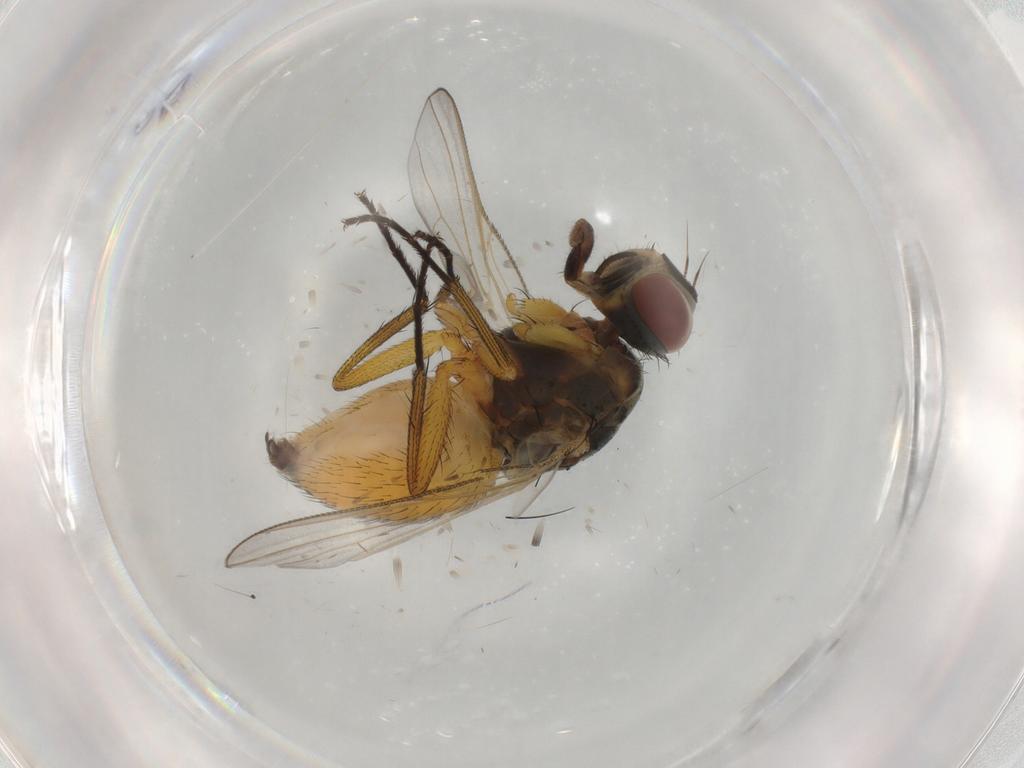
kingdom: Animalia
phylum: Arthropoda
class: Insecta
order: Diptera
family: Muscidae
